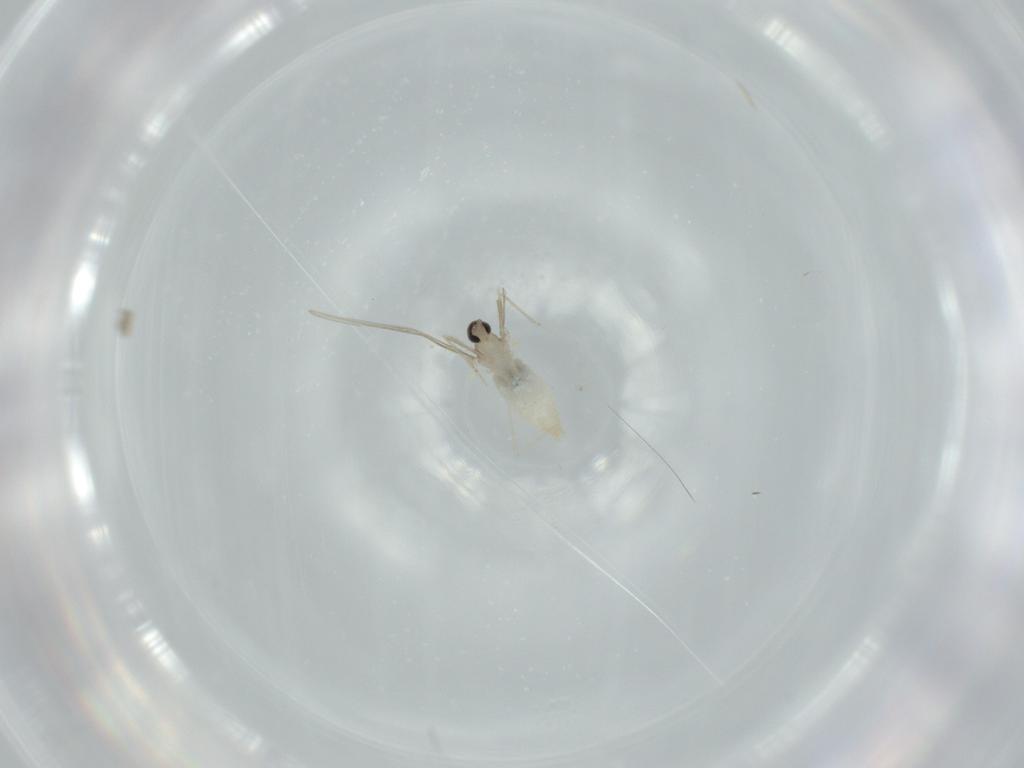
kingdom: Animalia
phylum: Arthropoda
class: Insecta
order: Diptera
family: Cecidomyiidae
